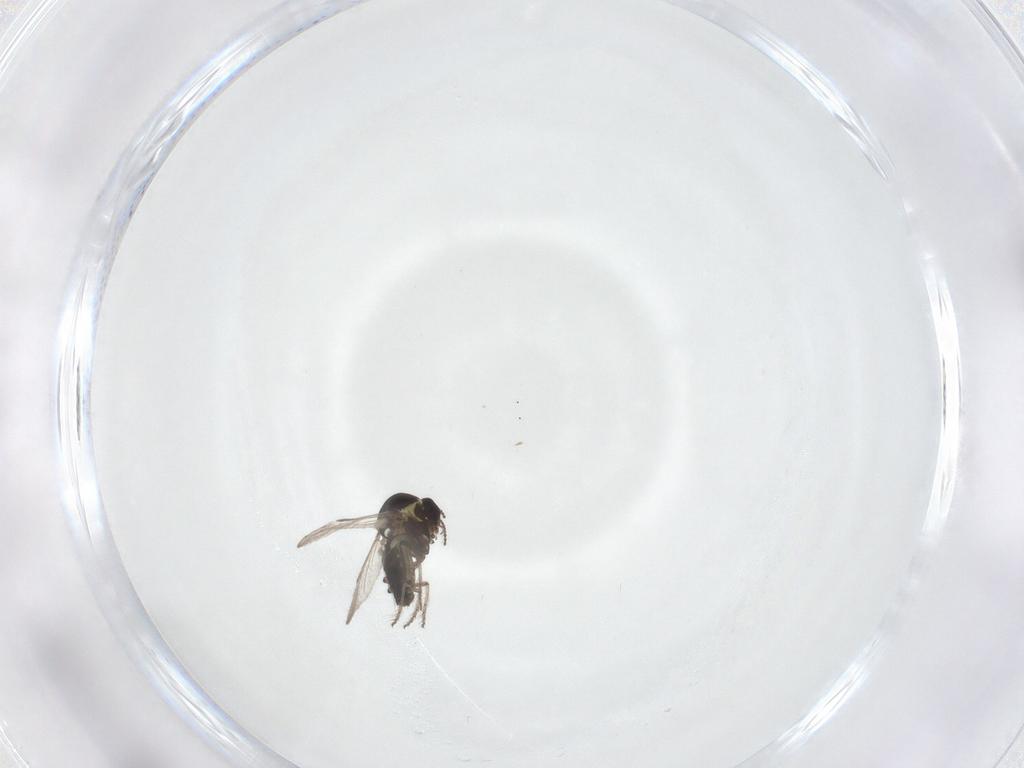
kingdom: Animalia
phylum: Arthropoda
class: Insecta
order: Diptera
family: Ceratopogonidae
